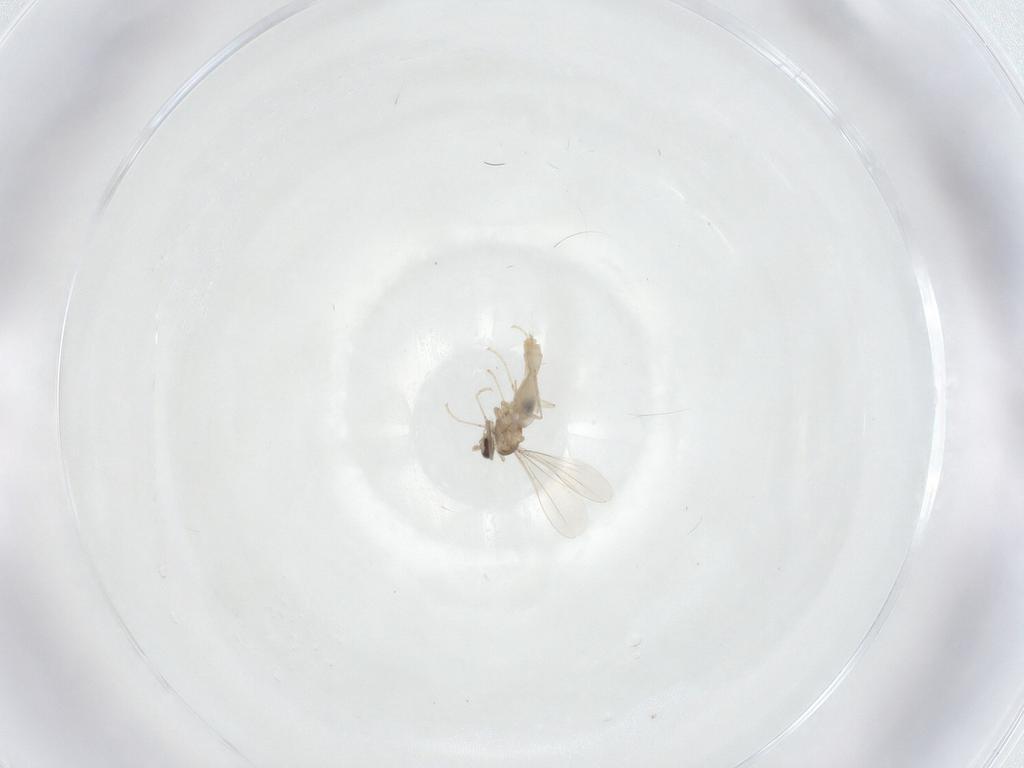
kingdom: Animalia
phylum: Arthropoda
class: Insecta
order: Diptera
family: Cecidomyiidae
